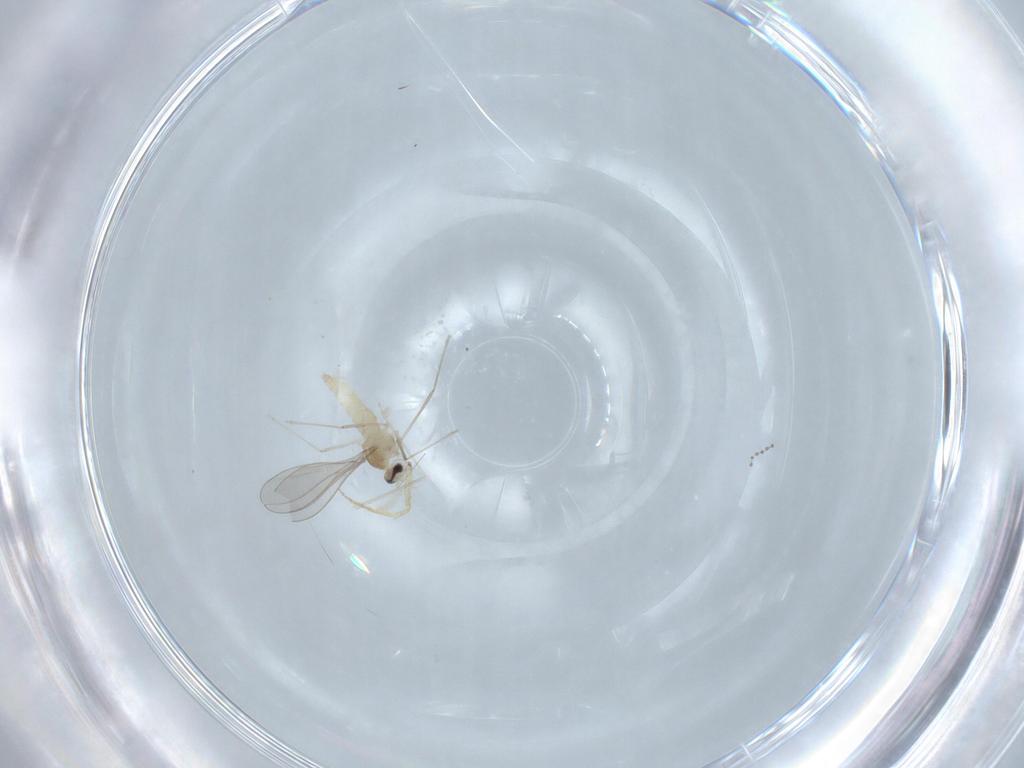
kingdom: Animalia
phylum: Arthropoda
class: Insecta
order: Diptera
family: Cecidomyiidae
